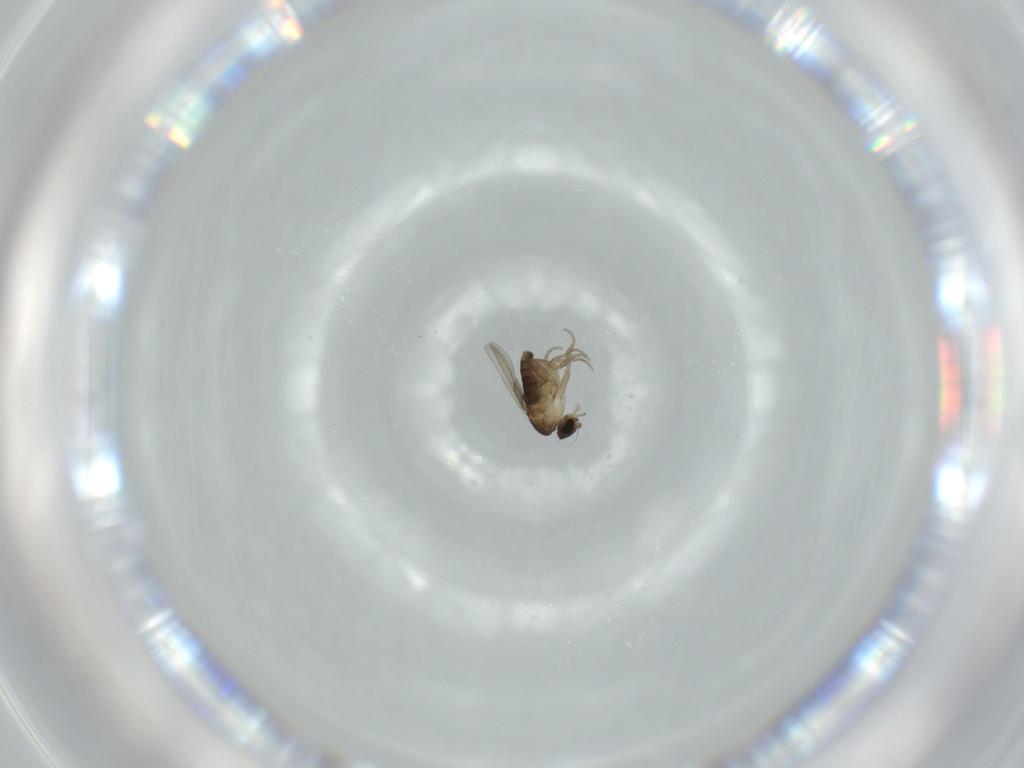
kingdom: Animalia
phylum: Arthropoda
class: Insecta
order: Diptera
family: Phoridae
